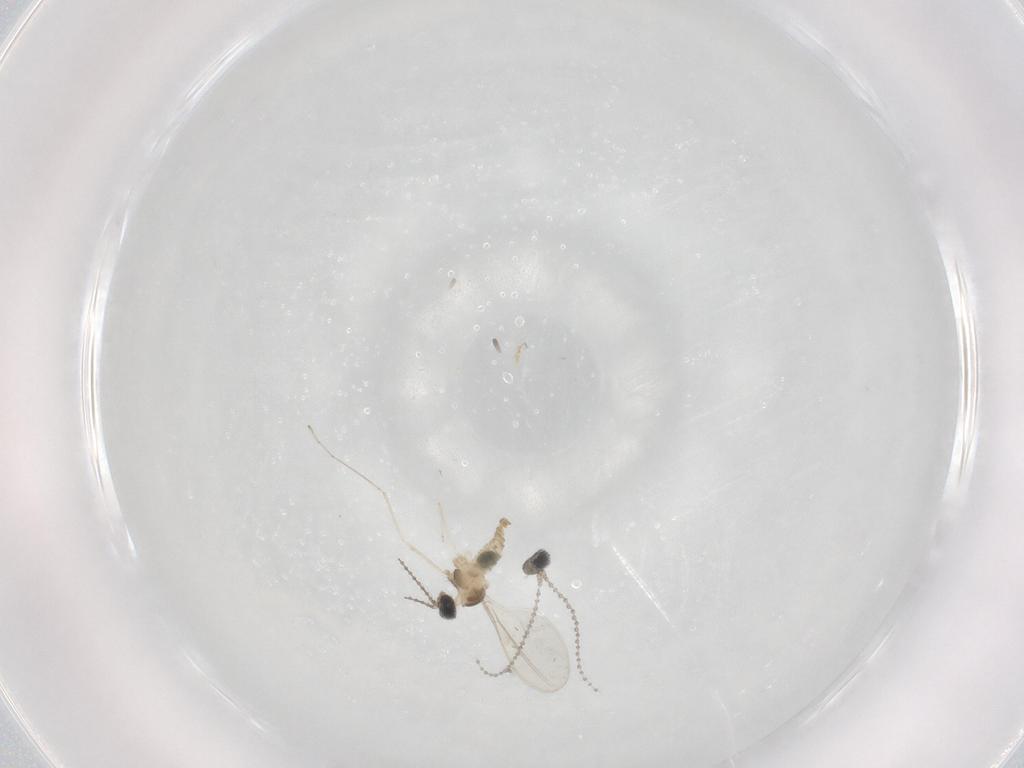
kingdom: Animalia
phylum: Arthropoda
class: Insecta
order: Diptera
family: Cecidomyiidae
